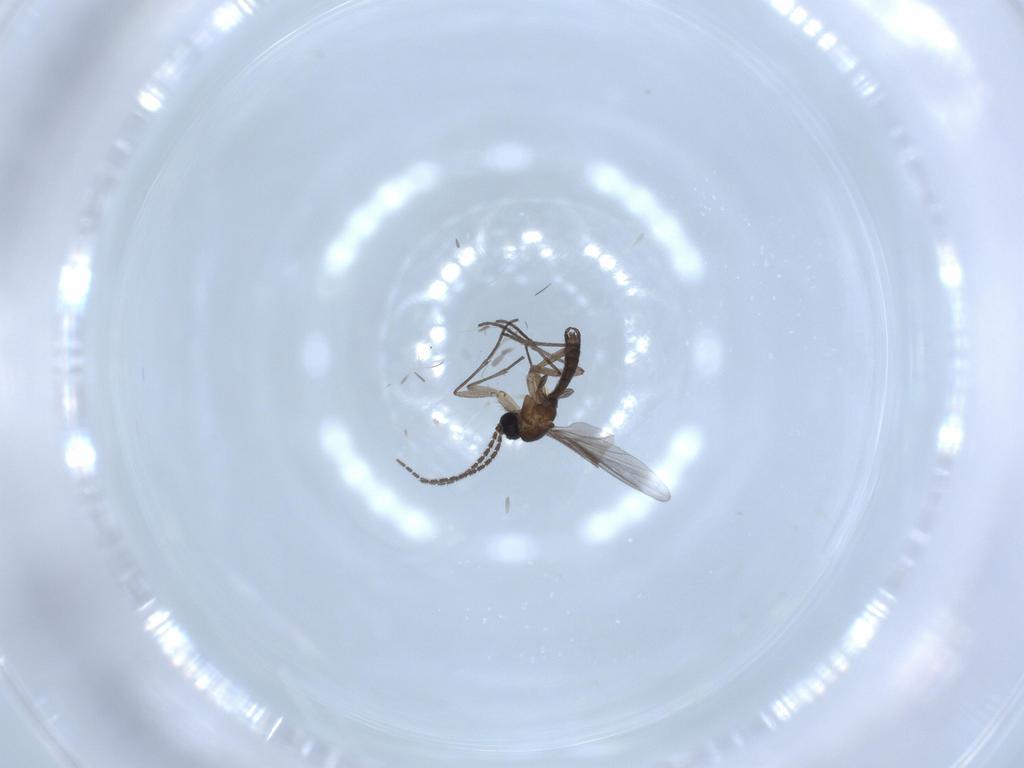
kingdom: Animalia
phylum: Arthropoda
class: Insecta
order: Diptera
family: Sciaridae
